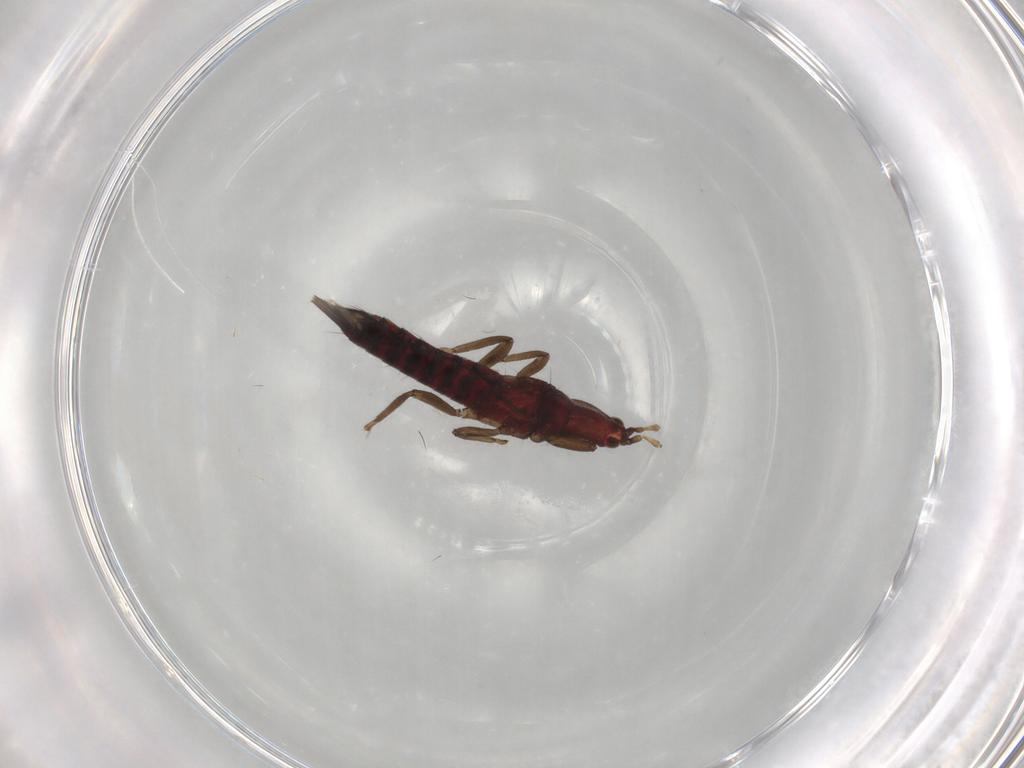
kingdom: Animalia
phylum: Arthropoda
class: Insecta
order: Thysanoptera
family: Phlaeothripidae
